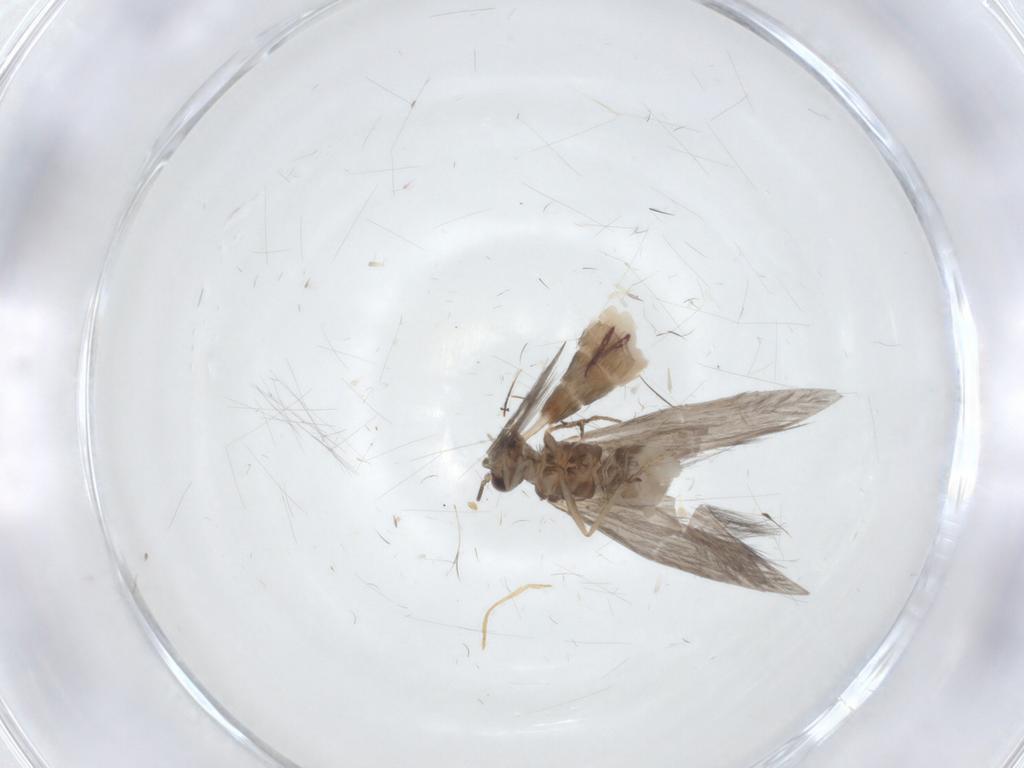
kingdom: Animalia
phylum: Arthropoda
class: Insecta
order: Trichoptera
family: Hydroptilidae
